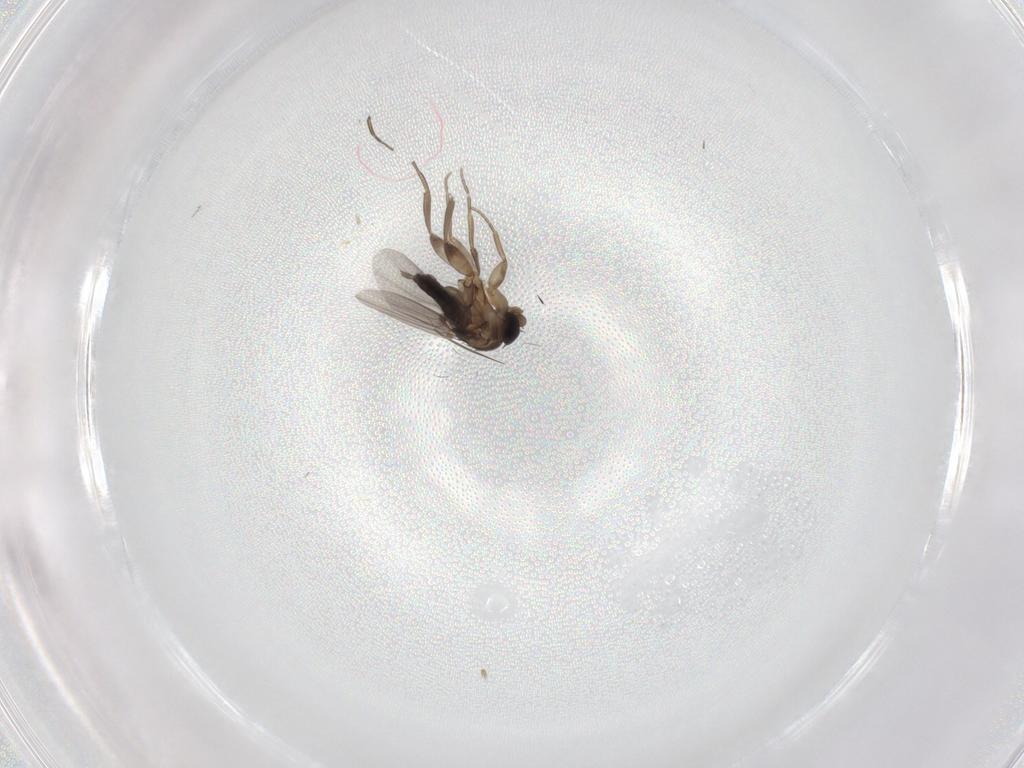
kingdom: Animalia
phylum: Arthropoda
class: Insecta
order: Diptera
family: Phoridae
